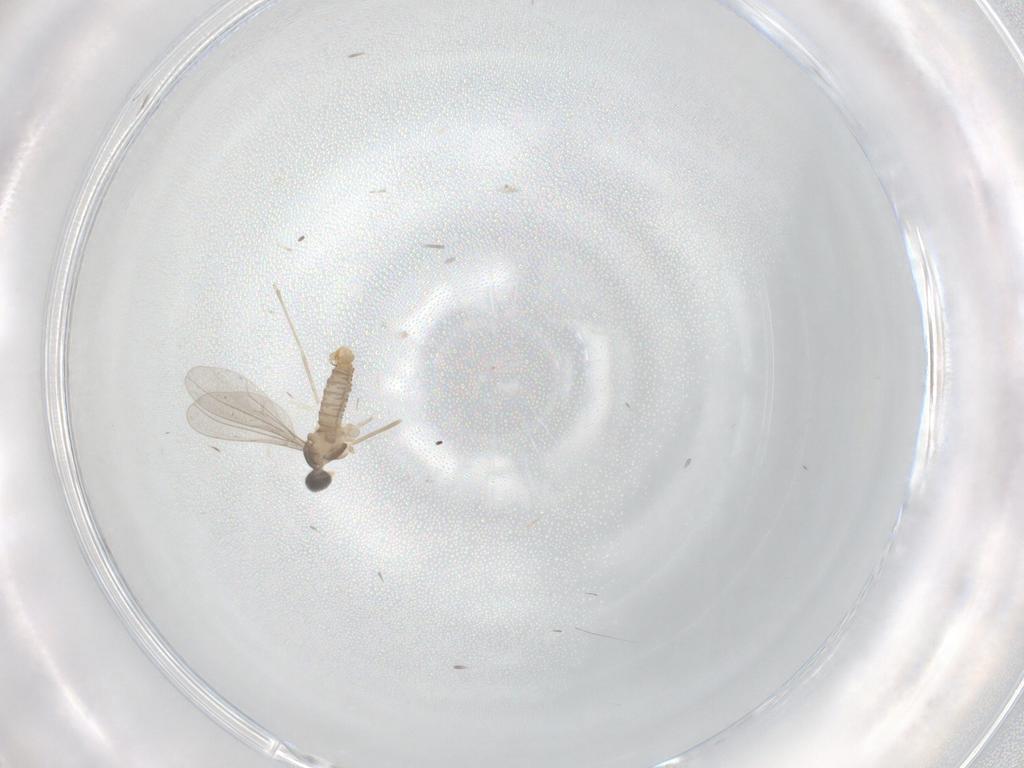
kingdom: Animalia
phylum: Arthropoda
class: Insecta
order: Diptera
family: Cecidomyiidae
